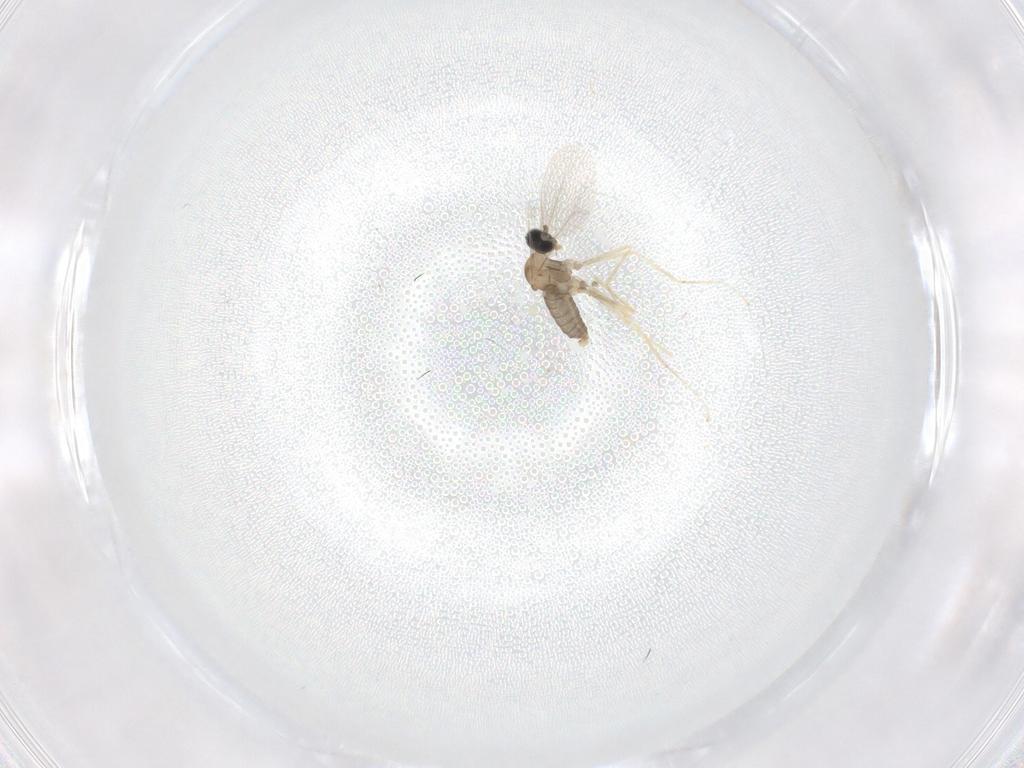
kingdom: Animalia
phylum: Arthropoda
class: Insecta
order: Diptera
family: Cecidomyiidae
